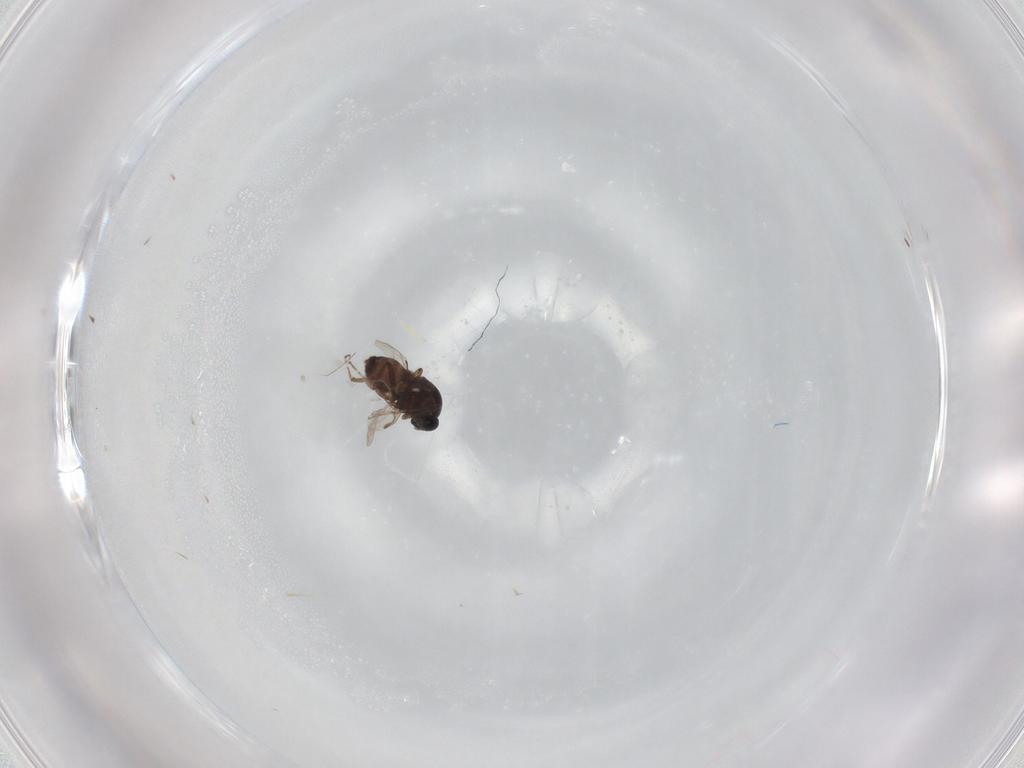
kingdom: Animalia
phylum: Arthropoda
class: Insecta
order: Diptera
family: Ceratopogonidae
